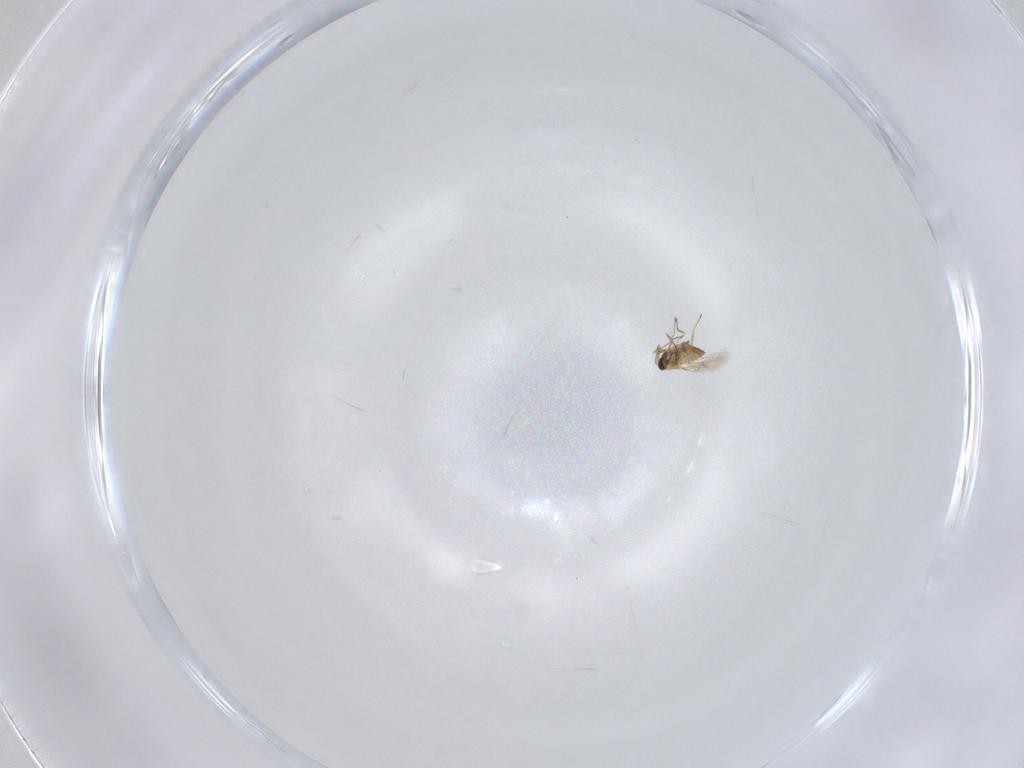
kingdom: Animalia
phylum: Arthropoda
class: Insecta
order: Hymenoptera
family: Trichogrammatidae
